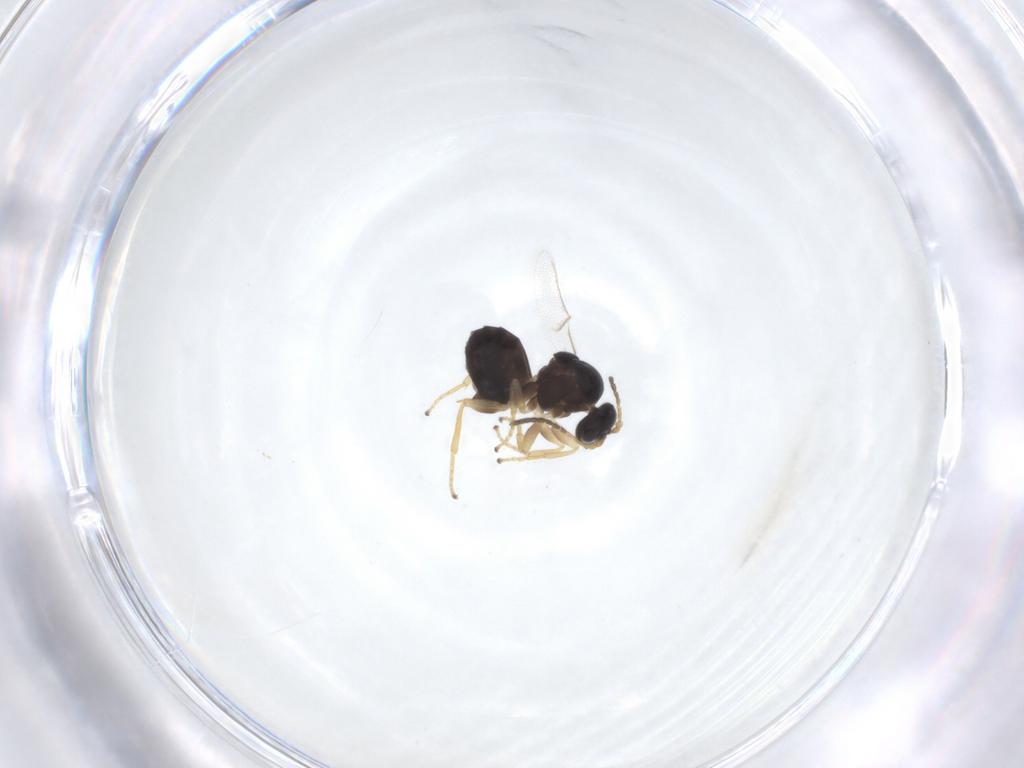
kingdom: Animalia
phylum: Arthropoda
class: Insecta
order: Hymenoptera
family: Cynipidae
